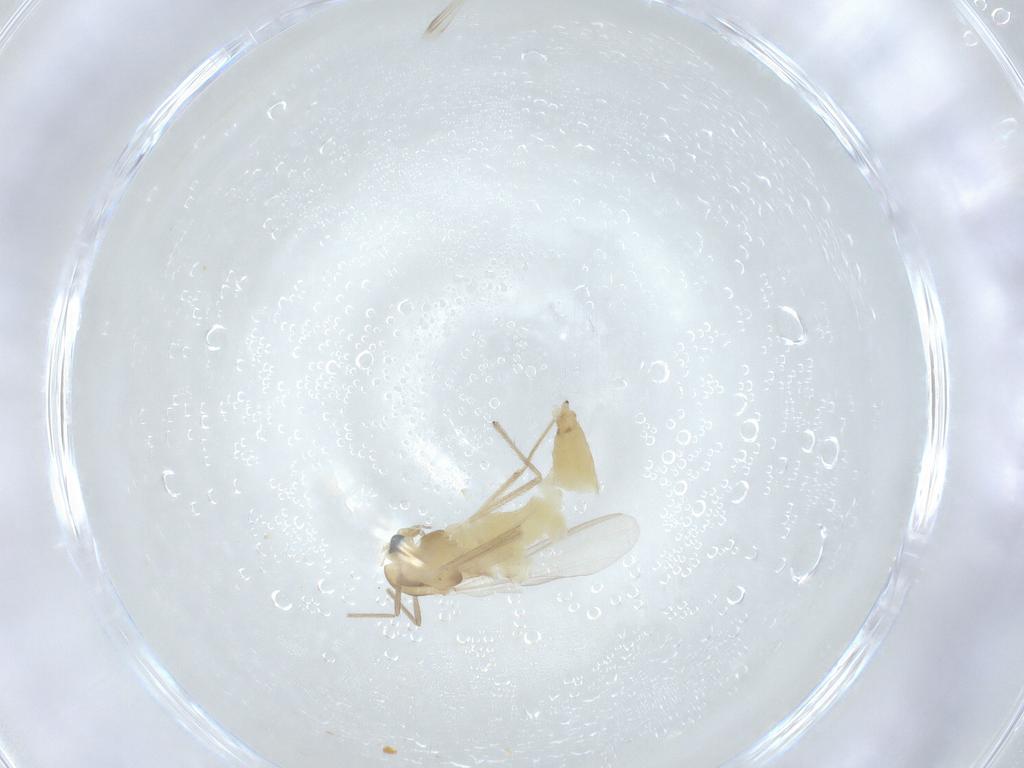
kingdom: Animalia
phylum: Arthropoda
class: Insecta
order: Diptera
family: Chironomidae
